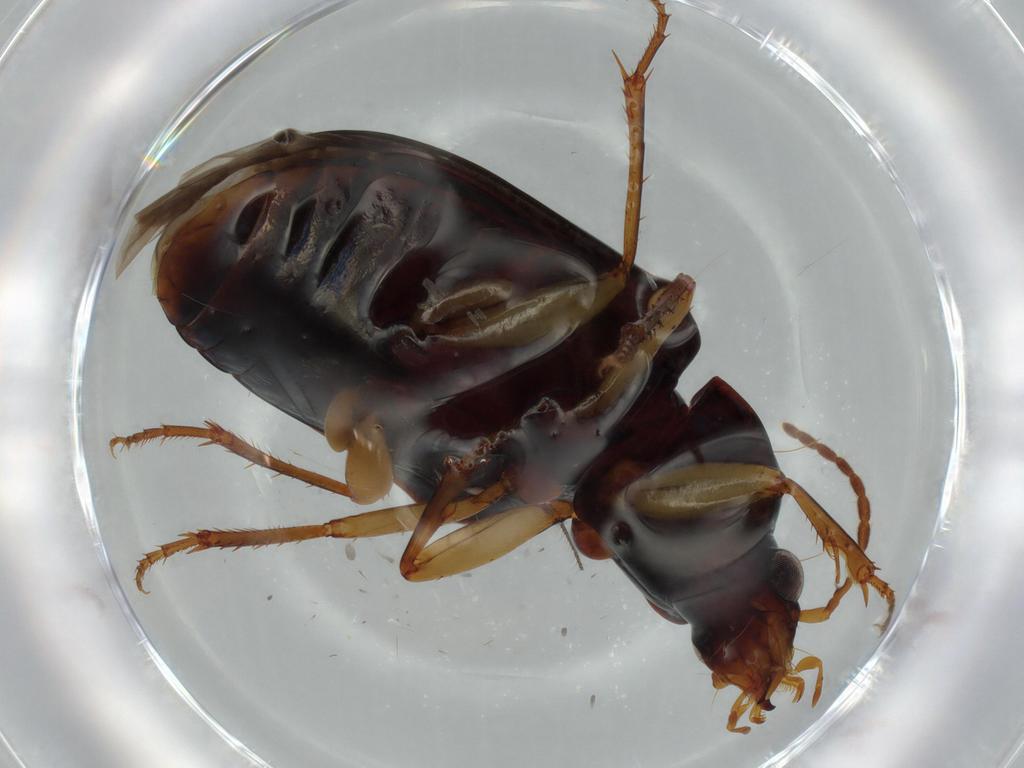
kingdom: Animalia
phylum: Arthropoda
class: Insecta
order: Coleoptera
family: Carabidae
